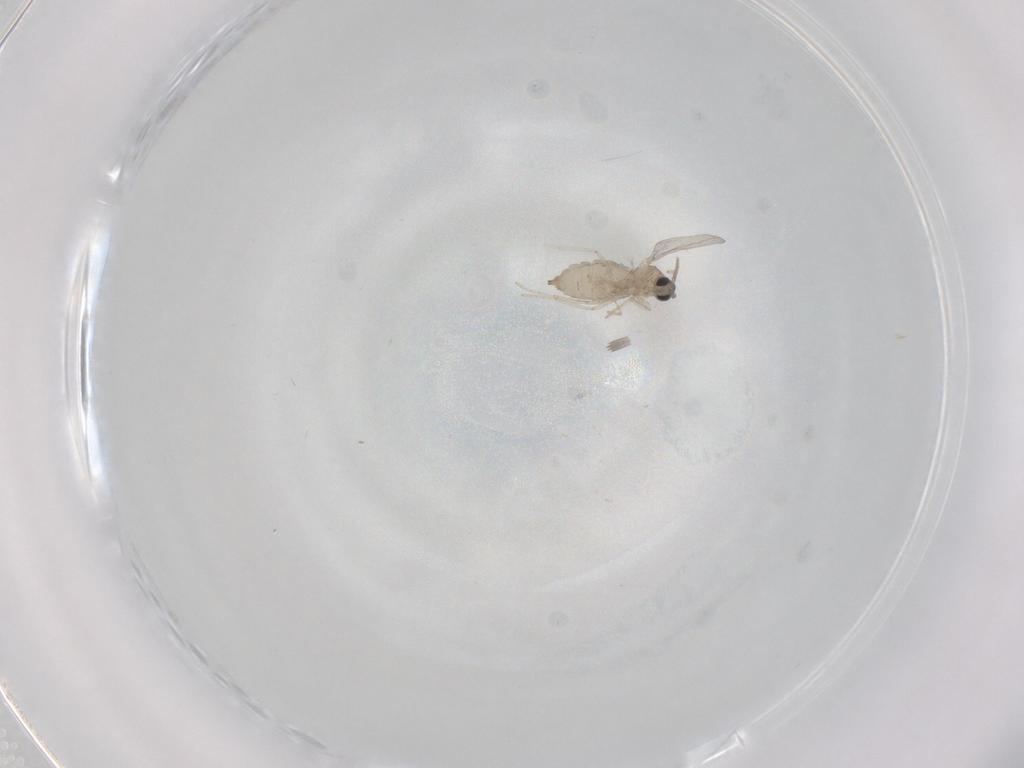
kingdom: Animalia
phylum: Arthropoda
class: Insecta
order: Diptera
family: Cecidomyiidae
